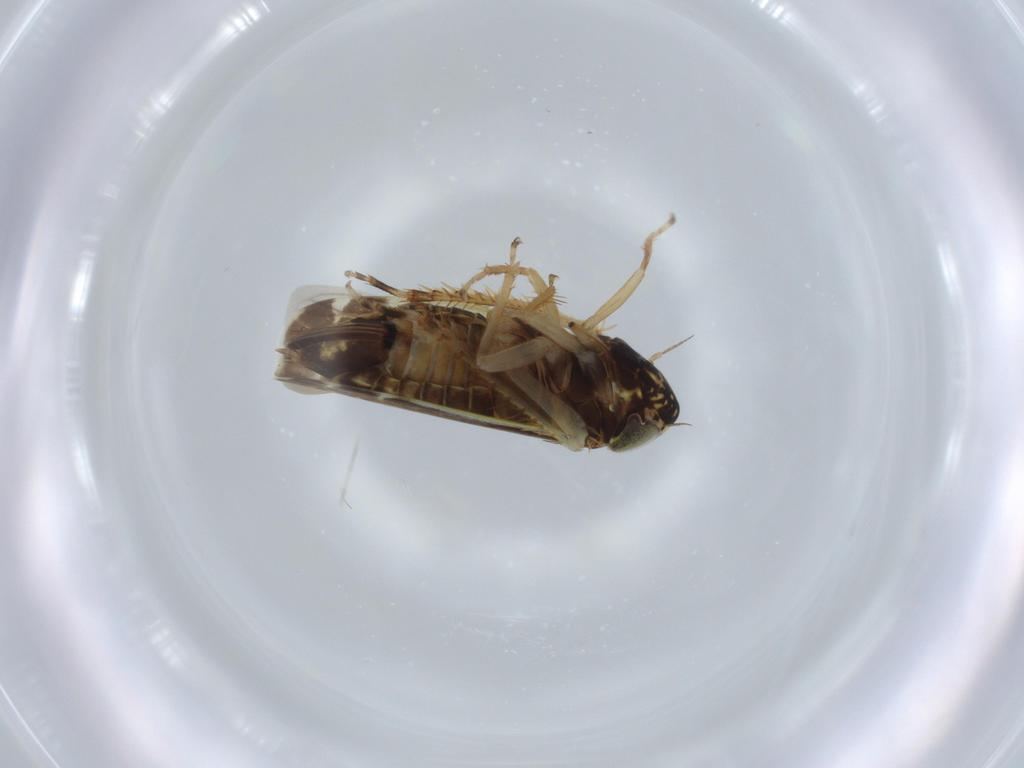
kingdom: Animalia
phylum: Arthropoda
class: Insecta
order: Hemiptera
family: Cicadellidae
